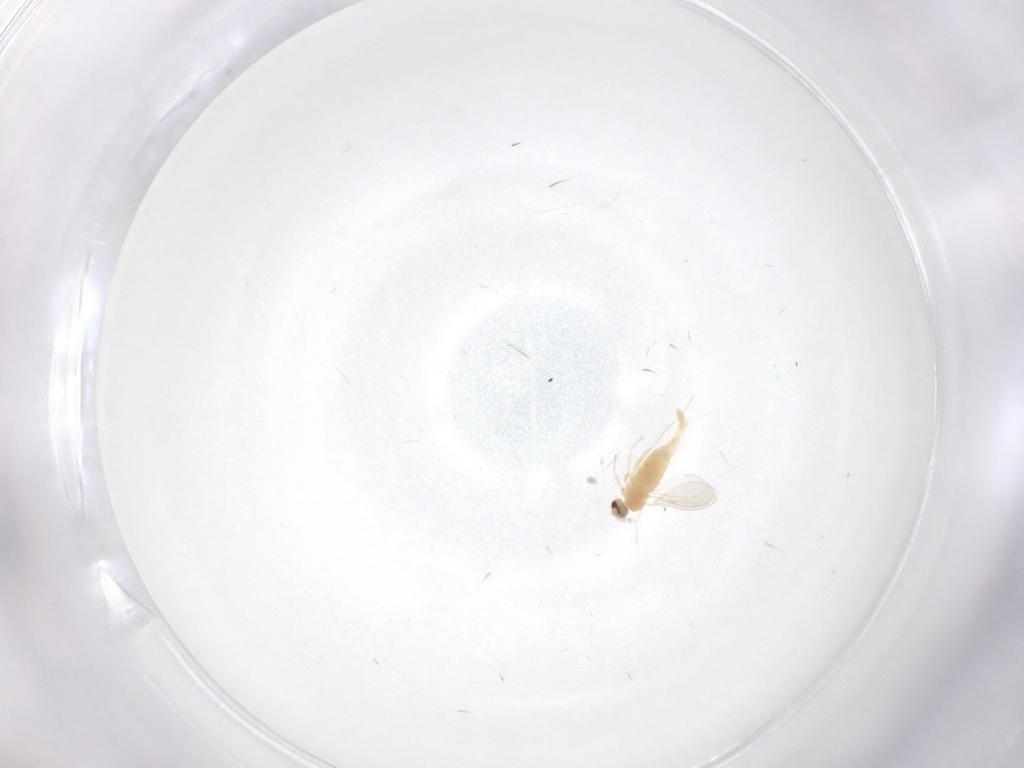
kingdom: Animalia
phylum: Arthropoda
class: Insecta
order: Diptera
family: Cecidomyiidae
